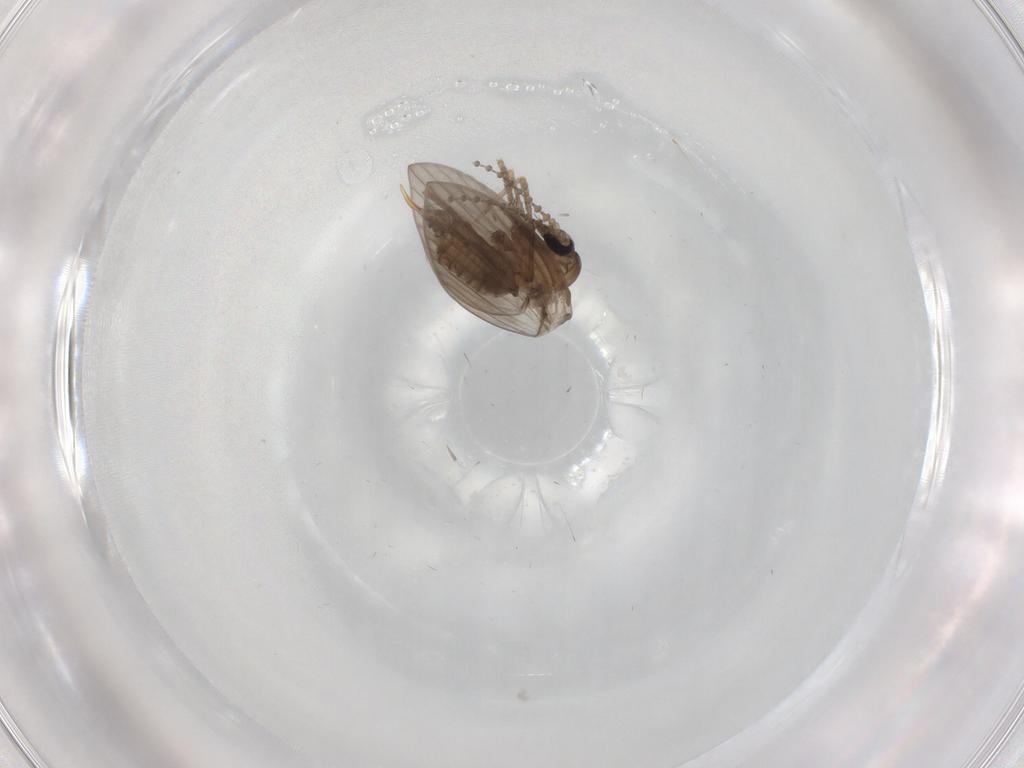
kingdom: Animalia
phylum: Arthropoda
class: Insecta
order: Diptera
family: Psychodidae
